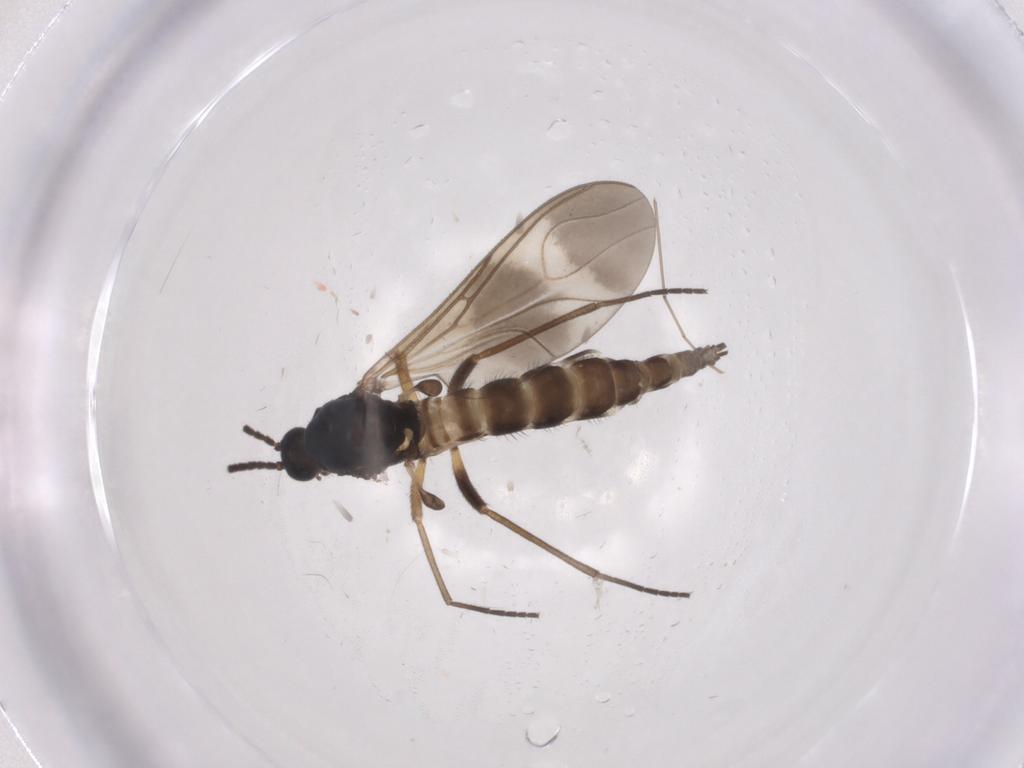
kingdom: Animalia
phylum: Arthropoda
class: Insecta
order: Diptera
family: Sciaridae
